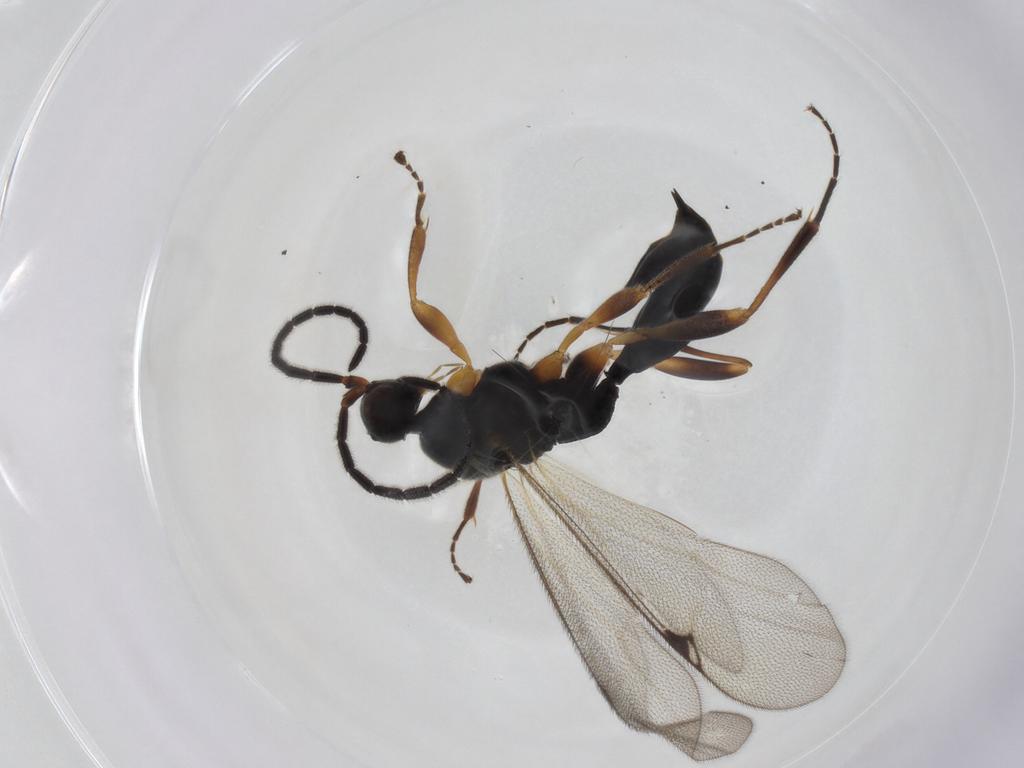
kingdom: Animalia
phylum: Arthropoda
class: Insecta
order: Hymenoptera
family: Proctotrupidae
